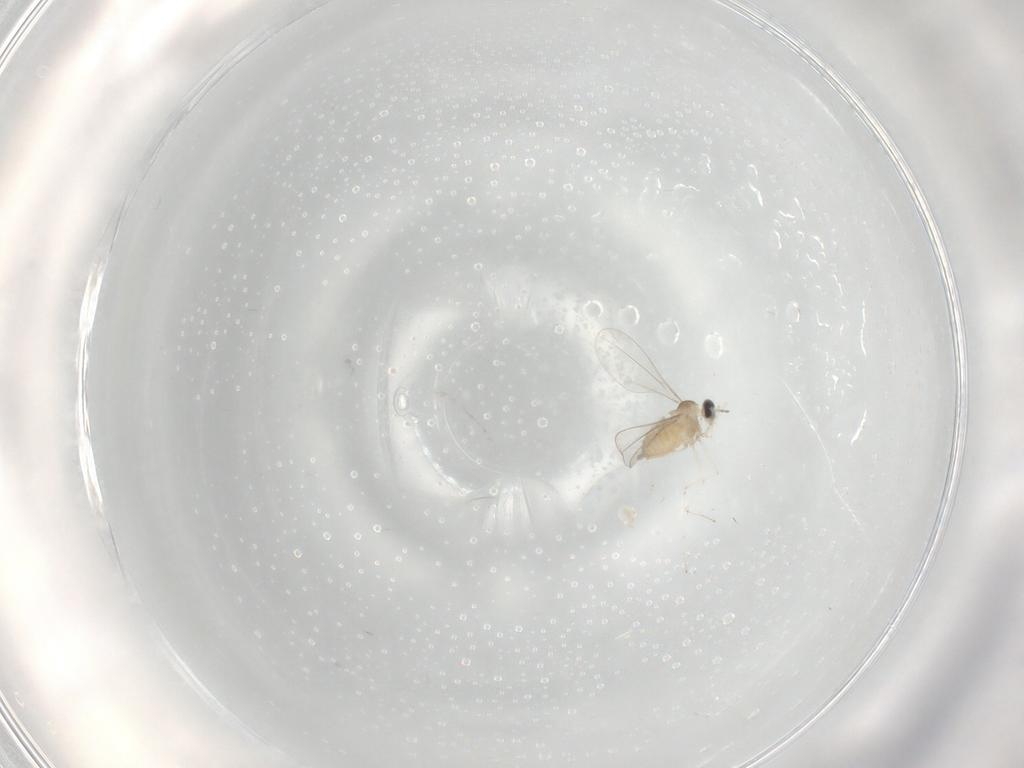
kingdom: Animalia
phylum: Arthropoda
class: Insecta
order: Diptera
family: Cecidomyiidae
